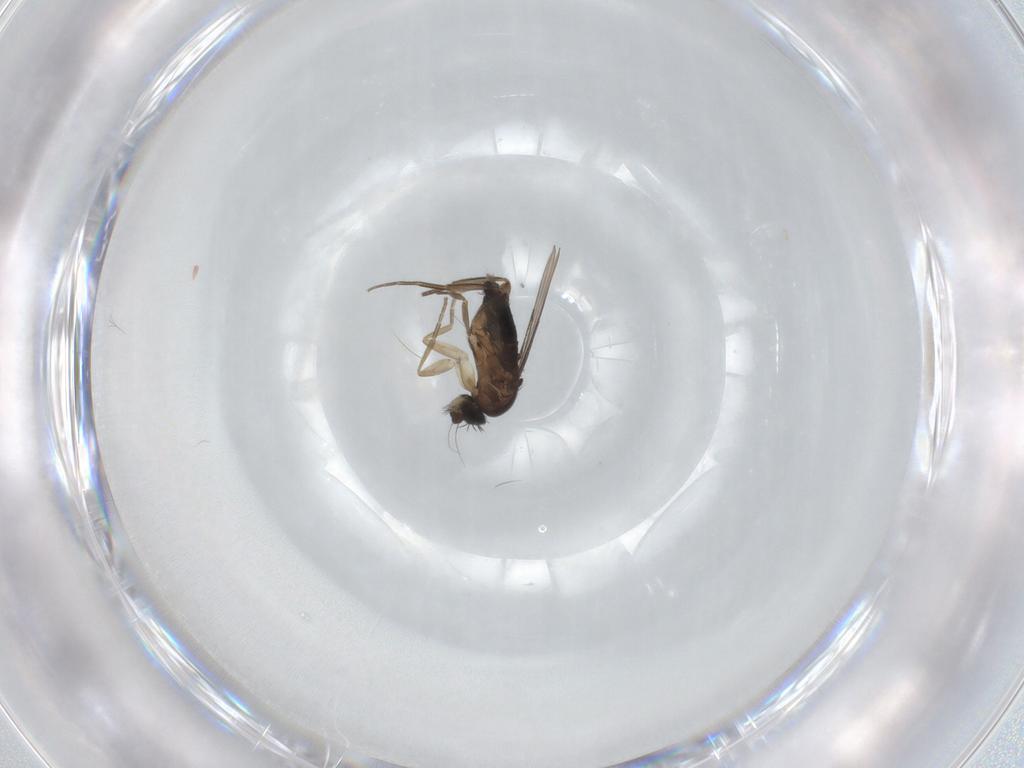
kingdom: Animalia
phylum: Arthropoda
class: Insecta
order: Diptera
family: Sciaridae
